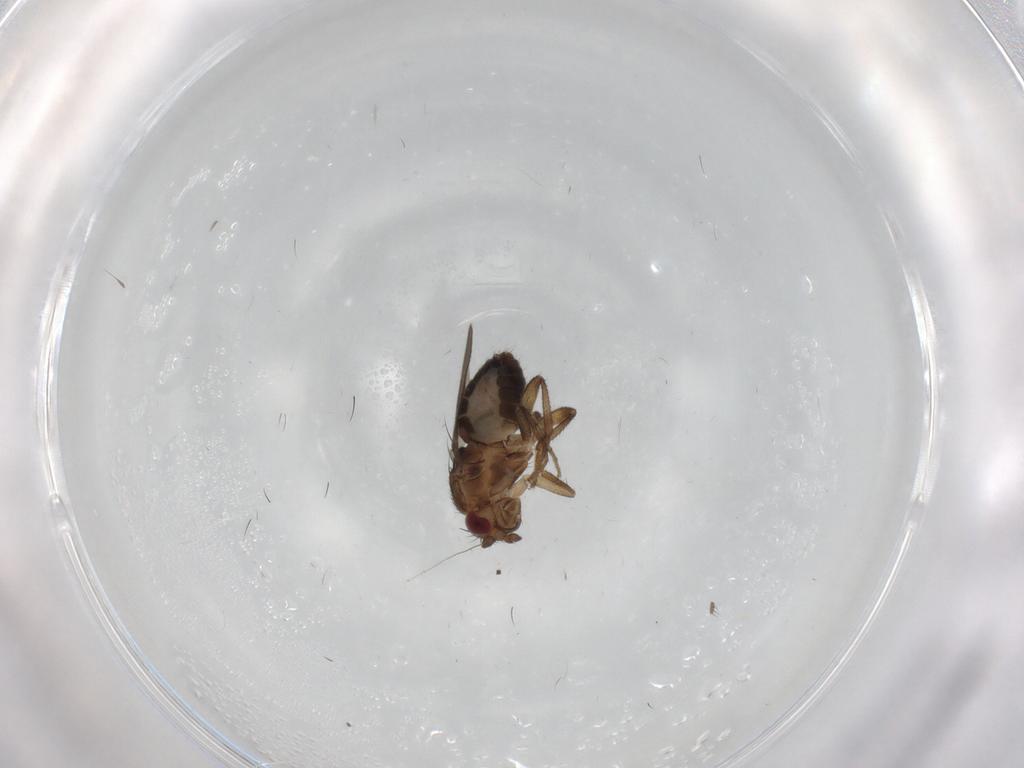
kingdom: Animalia
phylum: Arthropoda
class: Insecta
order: Diptera
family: Sphaeroceridae
